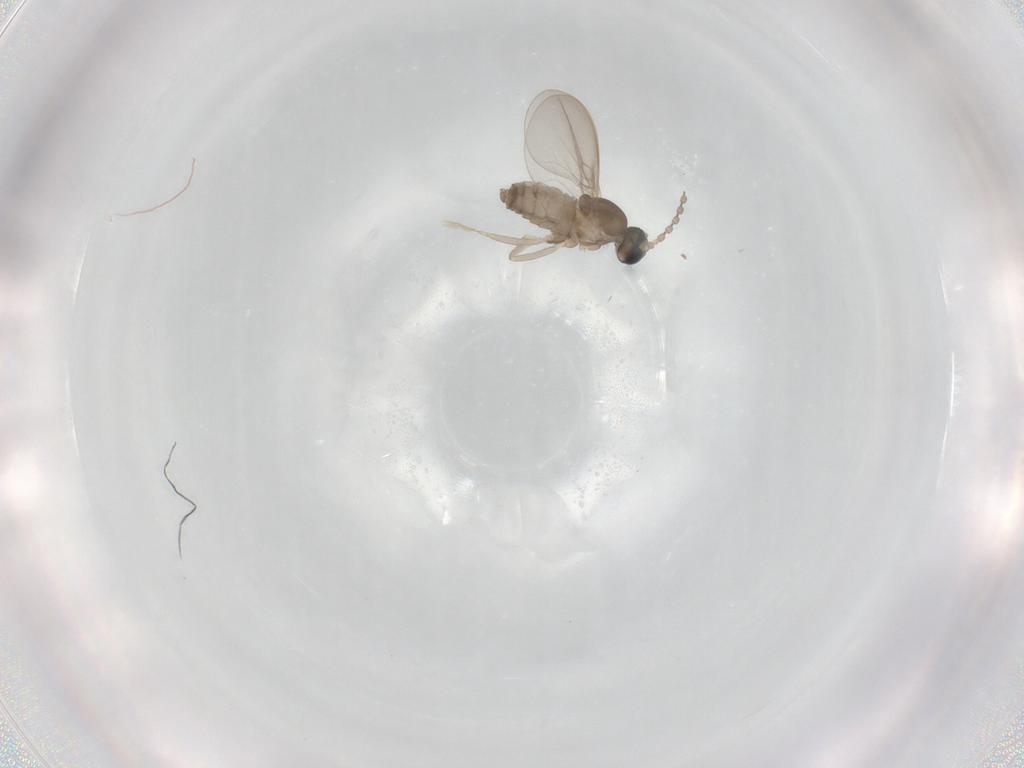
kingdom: Animalia
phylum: Arthropoda
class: Insecta
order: Diptera
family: Cecidomyiidae
